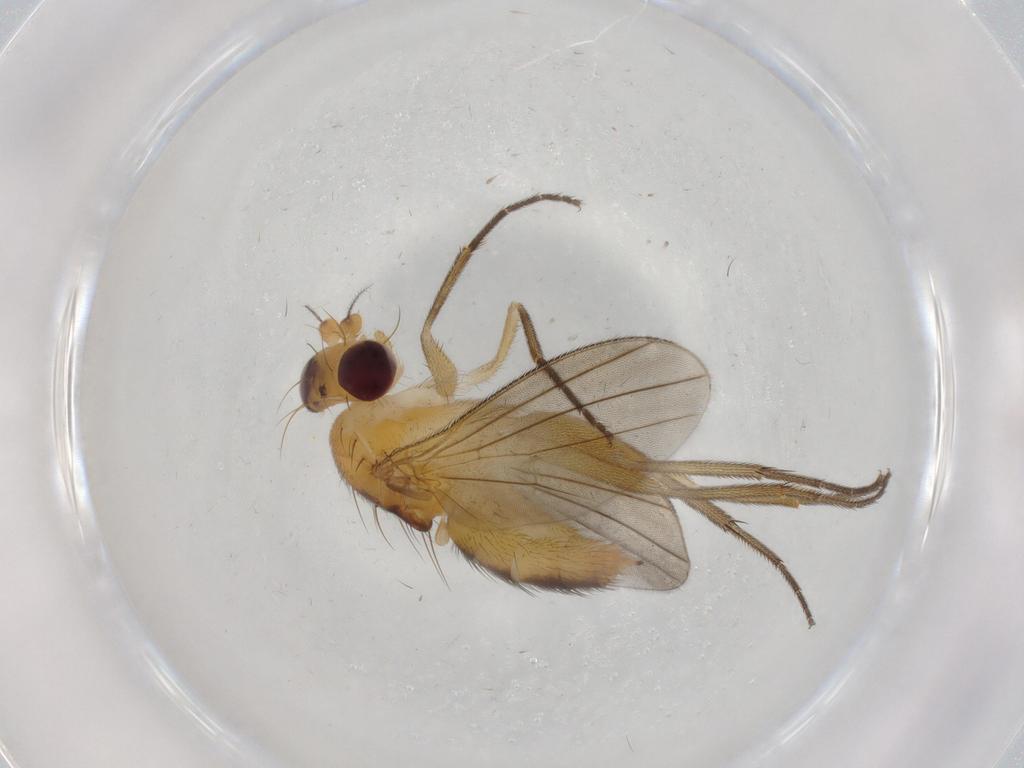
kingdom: Animalia
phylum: Arthropoda
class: Insecta
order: Diptera
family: Clusiidae
